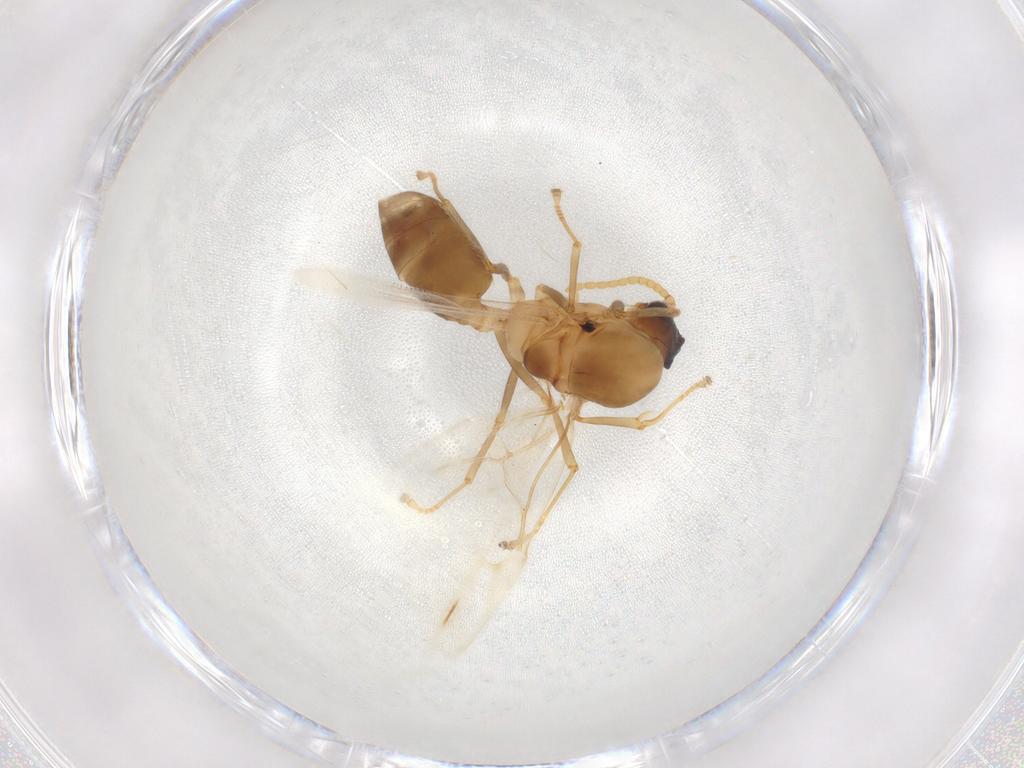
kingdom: Animalia
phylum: Arthropoda
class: Insecta
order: Hymenoptera
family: Formicidae
